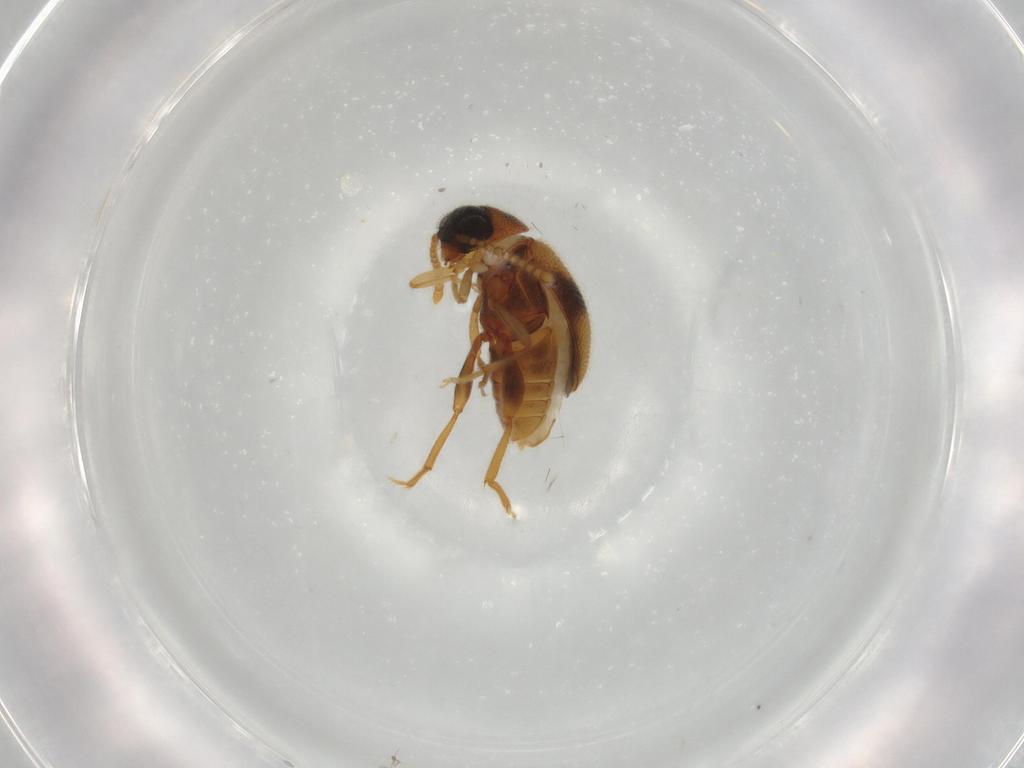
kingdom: Animalia
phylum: Arthropoda
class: Insecta
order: Coleoptera
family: Aderidae
